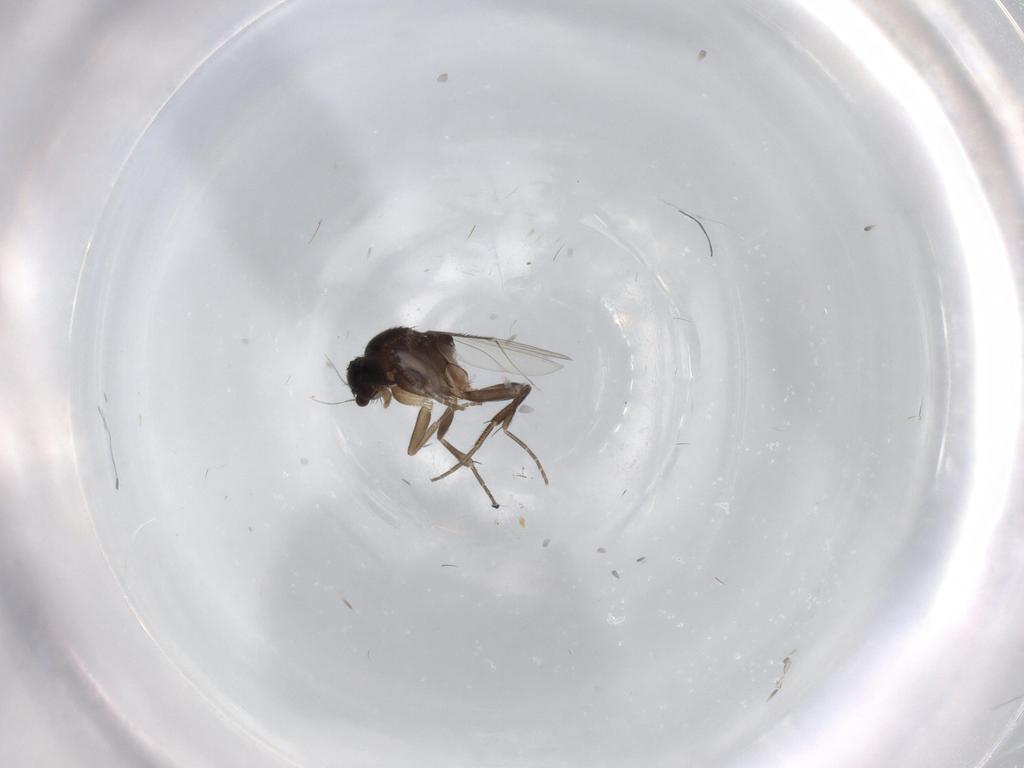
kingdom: Animalia
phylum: Arthropoda
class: Insecta
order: Diptera
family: Phoridae
